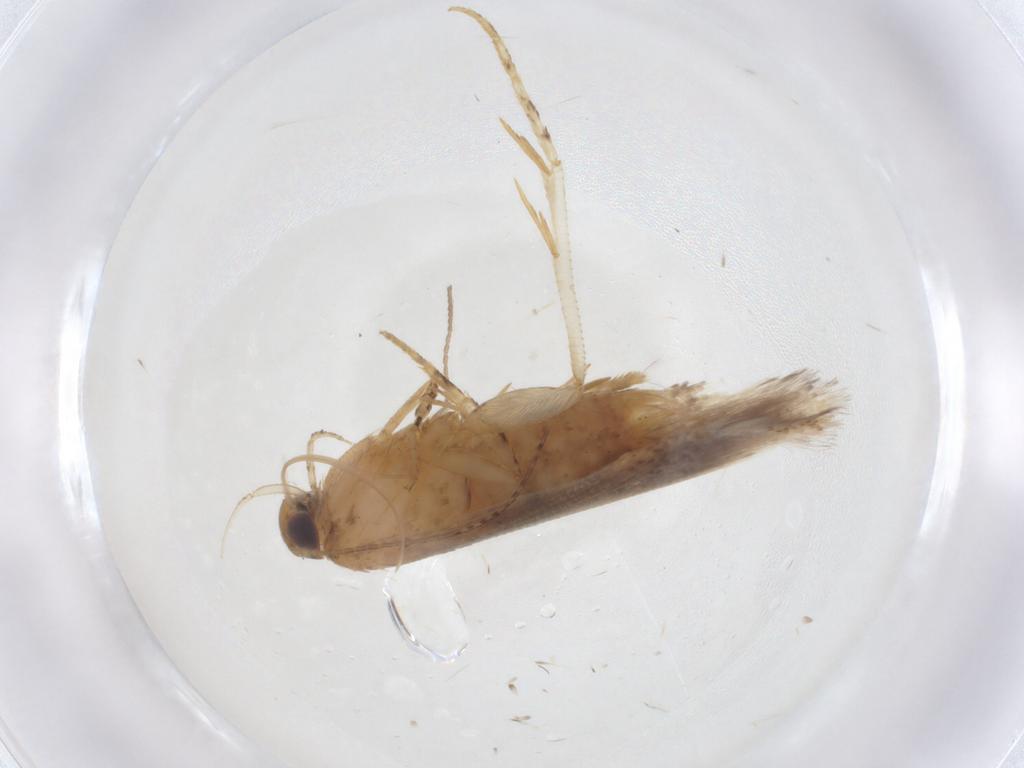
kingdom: Animalia
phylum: Arthropoda
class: Insecta
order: Lepidoptera
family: Gelechiidae
